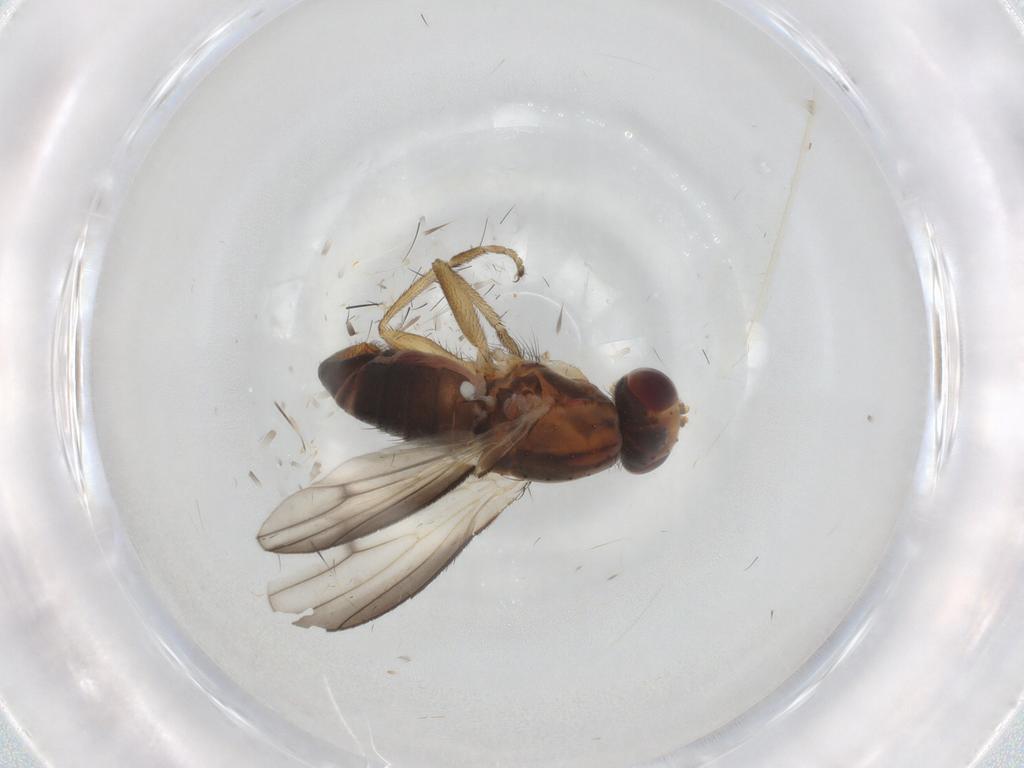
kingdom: Animalia
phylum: Arthropoda
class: Insecta
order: Diptera
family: Heleomyzidae
